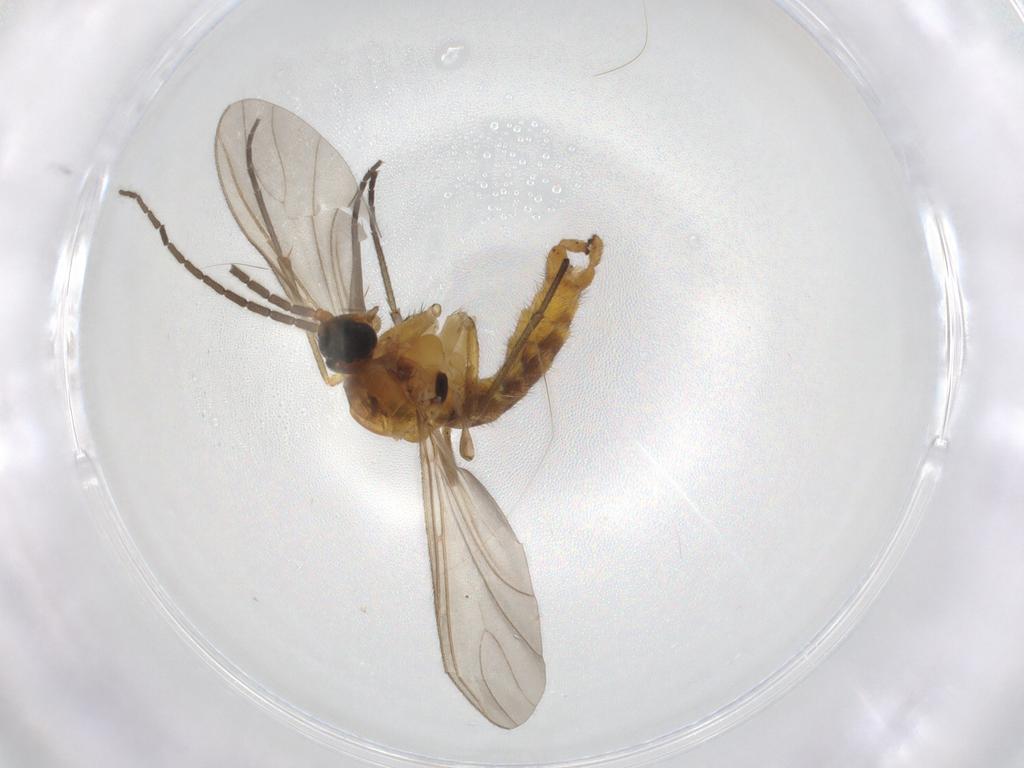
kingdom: Animalia
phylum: Arthropoda
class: Insecta
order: Diptera
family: Sciaridae
